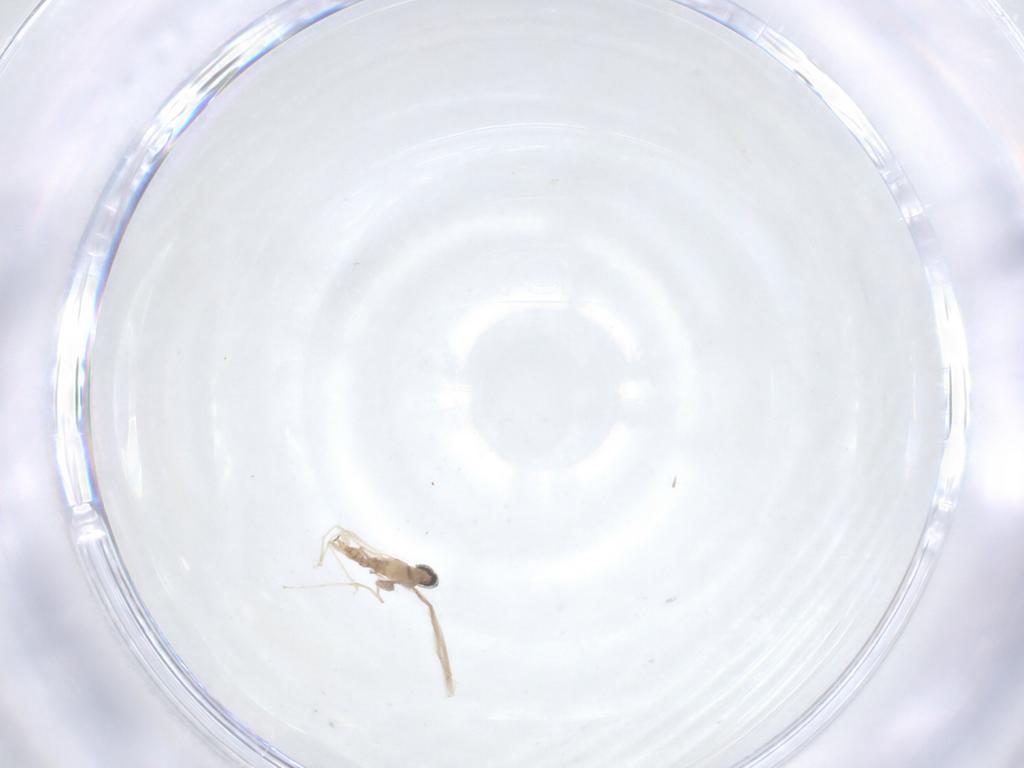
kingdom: Animalia
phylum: Arthropoda
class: Insecta
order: Diptera
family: Cecidomyiidae
